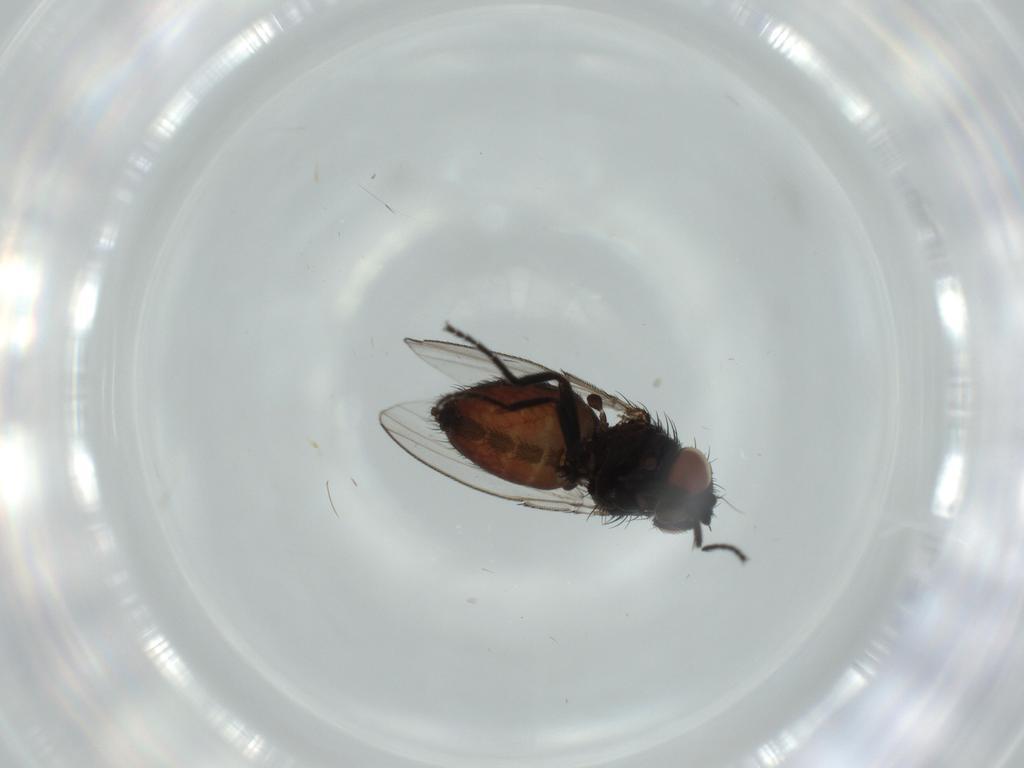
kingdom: Animalia
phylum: Arthropoda
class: Insecta
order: Diptera
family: Milichiidae
